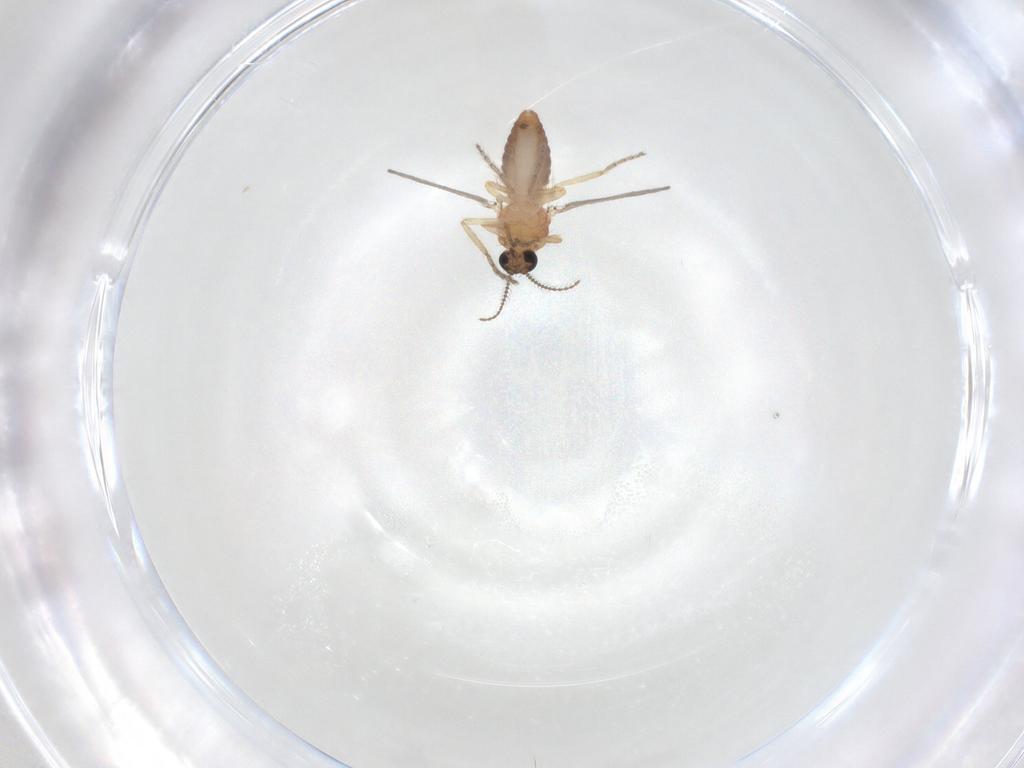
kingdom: Animalia
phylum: Arthropoda
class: Insecta
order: Diptera
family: Ceratopogonidae
